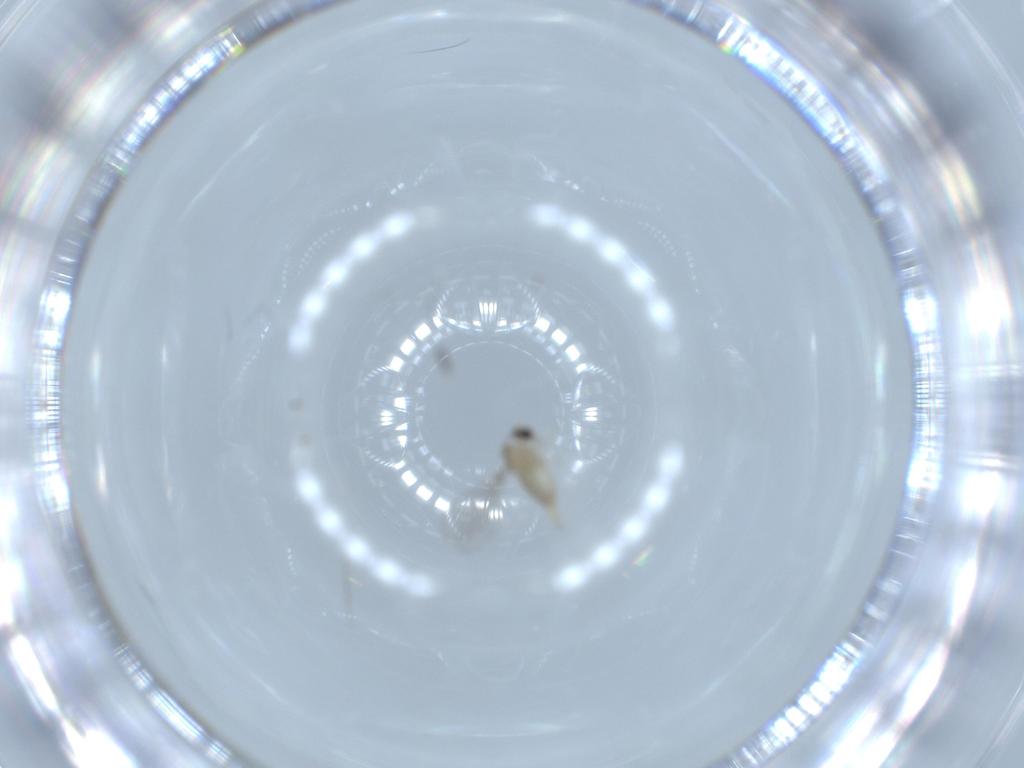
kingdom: Animalia
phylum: Arthropoda
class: Insecta
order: Diptera
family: Cecidomyiidae
